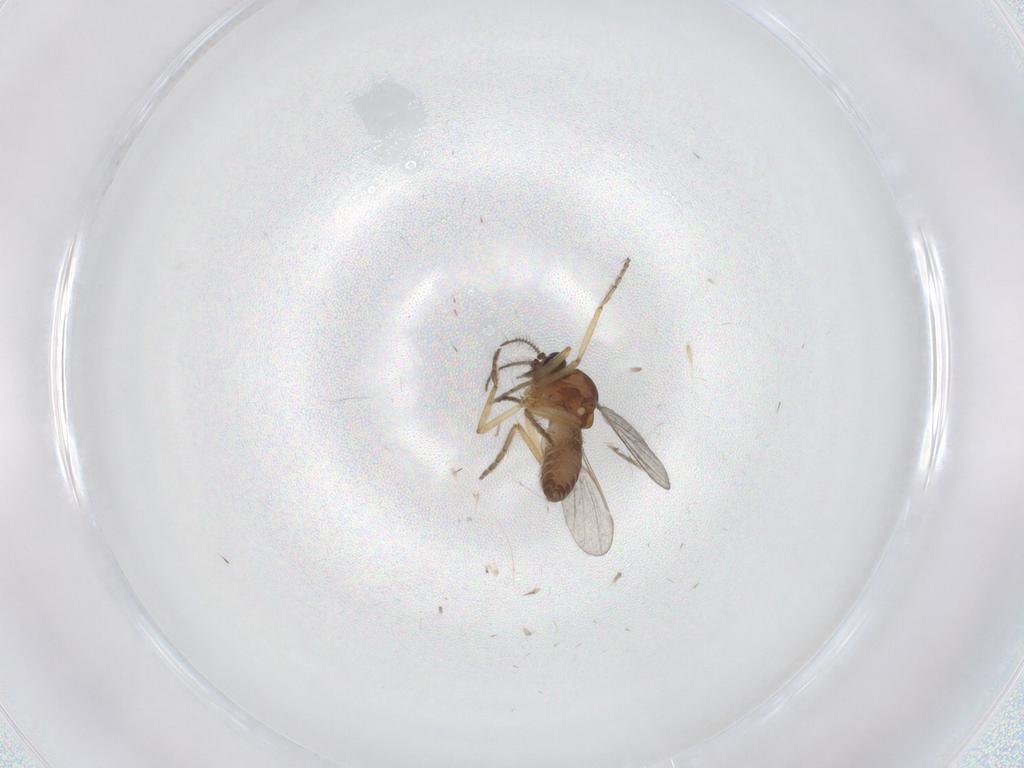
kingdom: Animalia
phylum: Arthropoda
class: Insecta
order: Diptera
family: Ceratopogonidae
